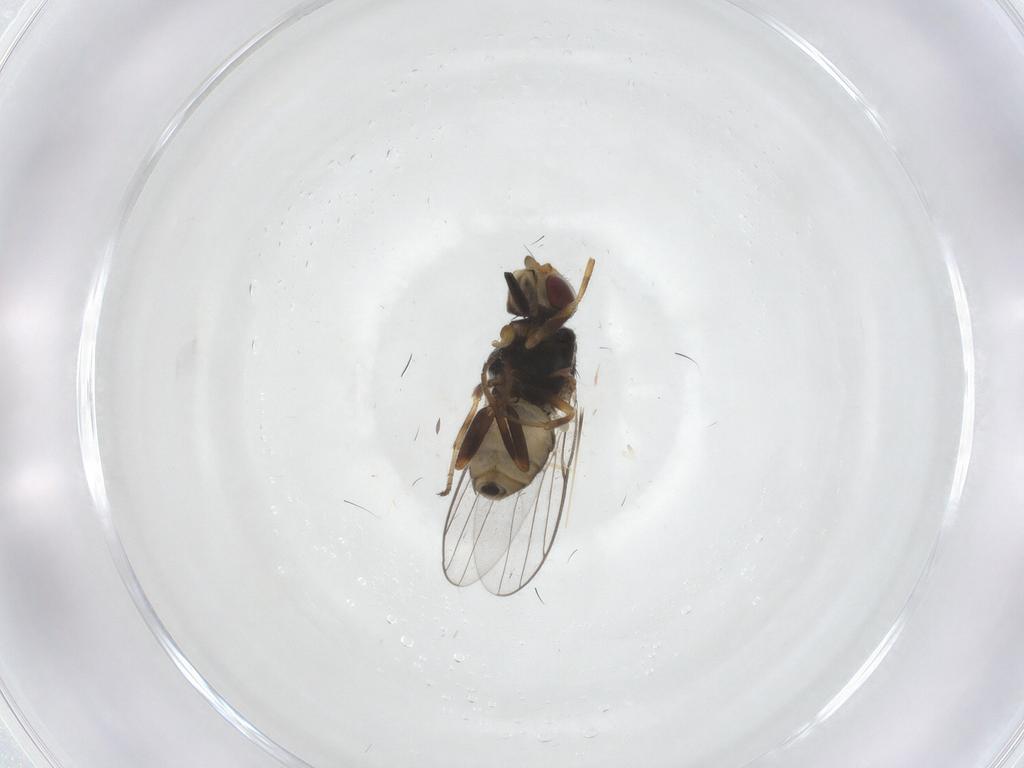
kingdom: Animalia
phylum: Arthropoda
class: Insecta
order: Diptera
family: Chloropidae
